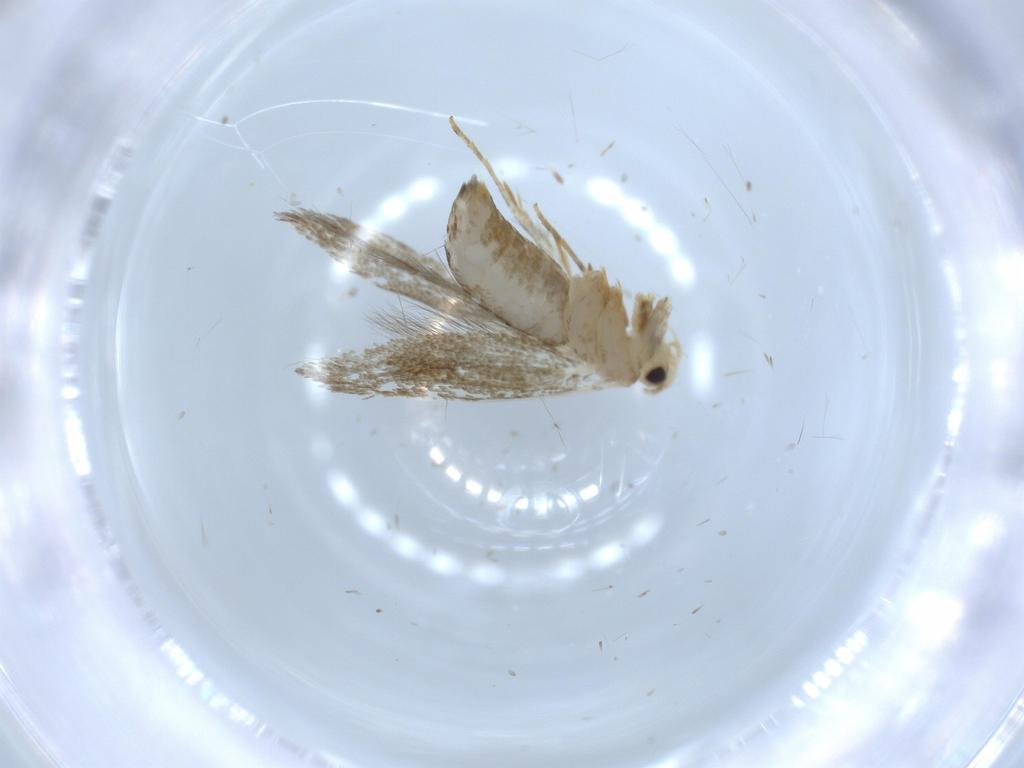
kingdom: Animalia
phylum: Arthropoda
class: Insecta
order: Lepidoptera
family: Tineidae
